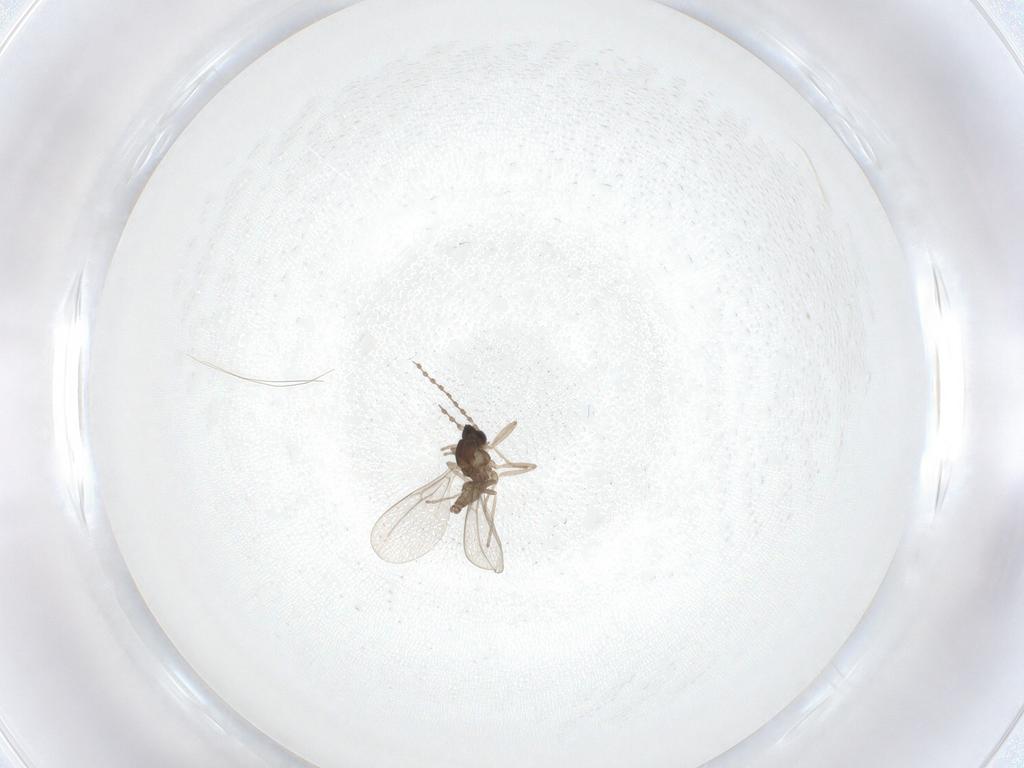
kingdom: Animalia
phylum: Arthropoda
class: Insecta
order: Diptera
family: Cecidomyiidae
